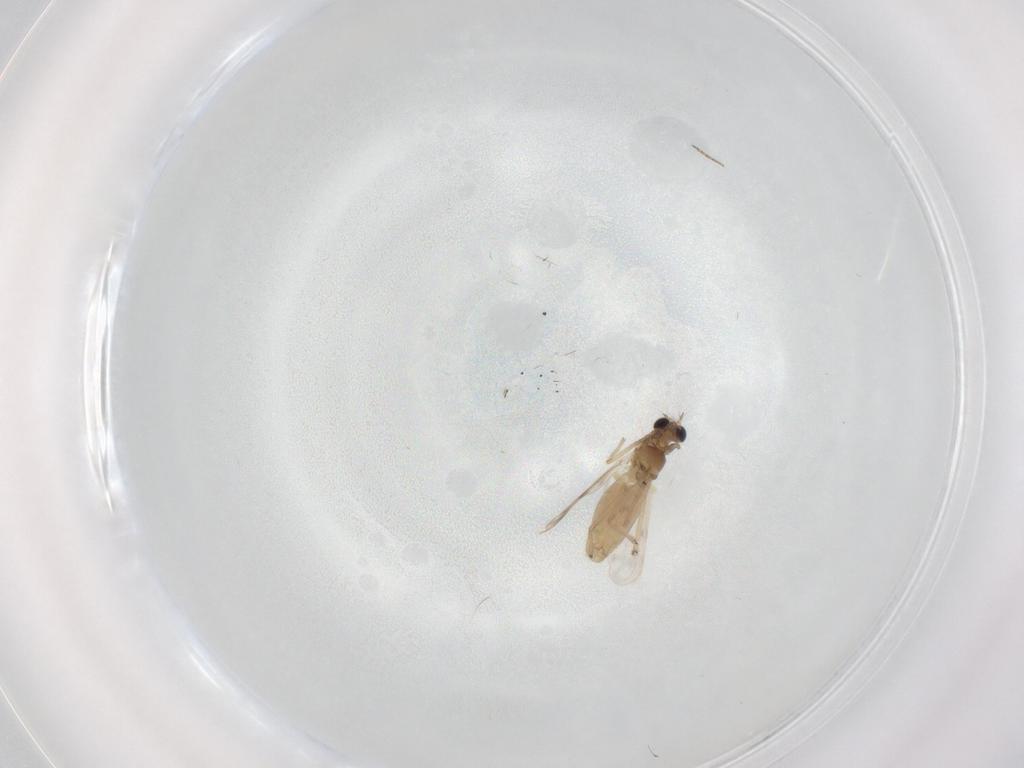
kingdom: Animalia
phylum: Arthropoda
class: Insecta
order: Diptera
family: Chironomidae
